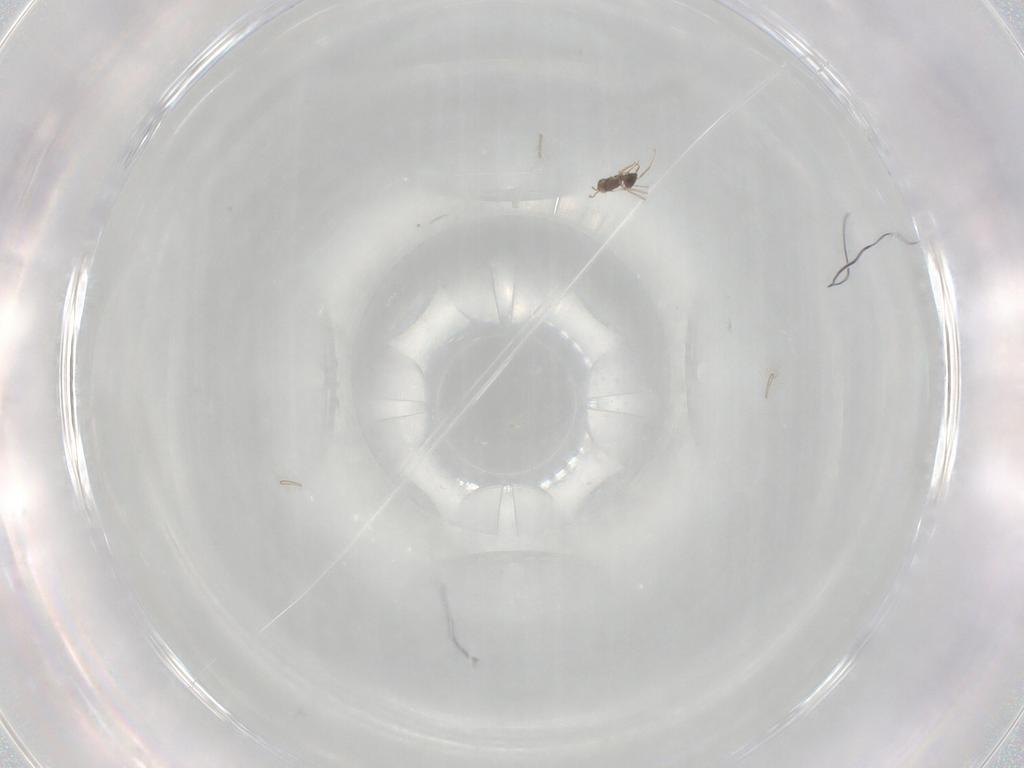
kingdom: Animalia
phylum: Arthropoda
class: Insecta
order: Hymenoptera
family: Mymaridae
